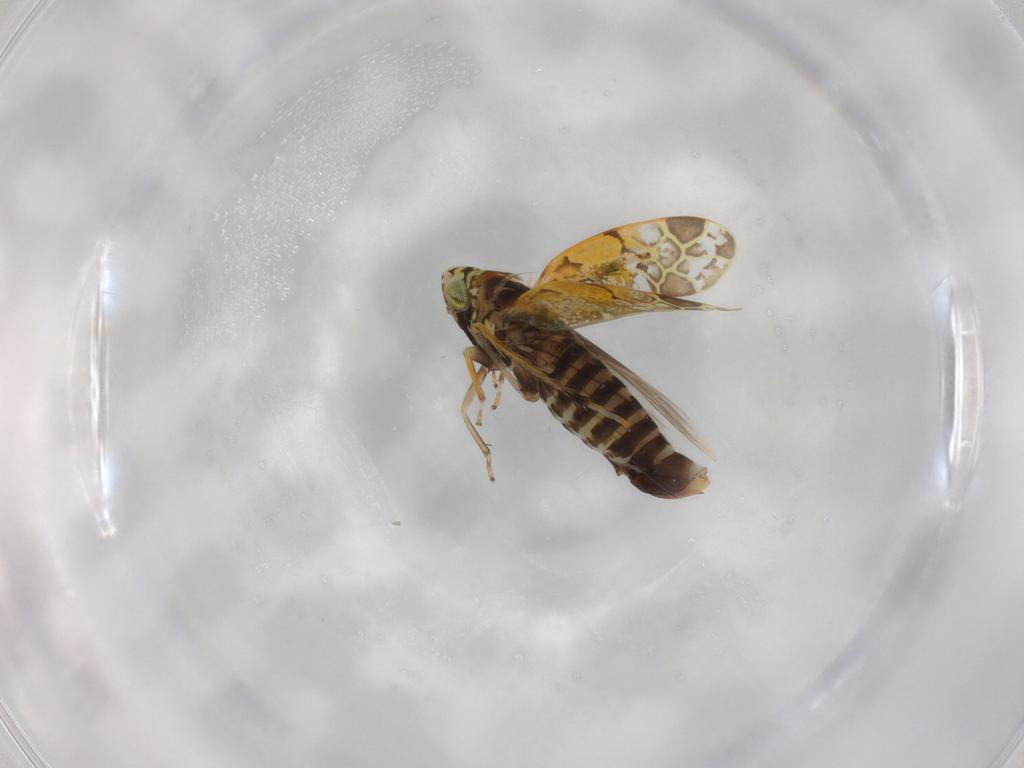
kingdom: Animalia
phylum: Arthropoda
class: Insecta
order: Hemiptera
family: Cicadellidae
